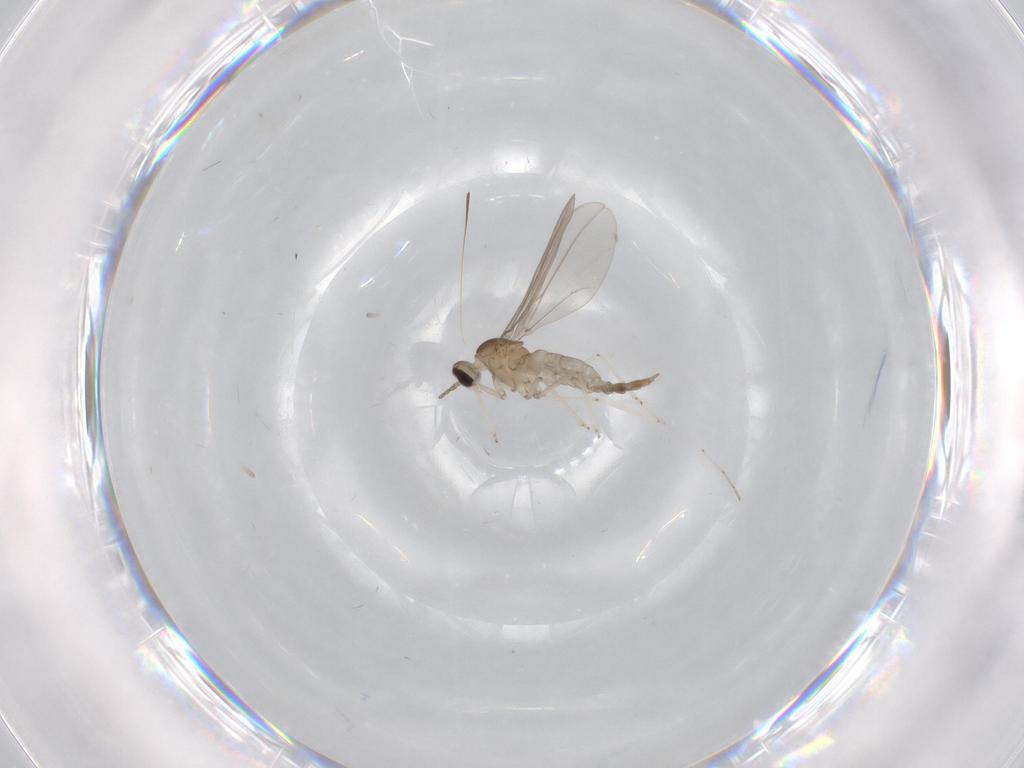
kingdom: Animalia
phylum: Arthropoda
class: Insecta
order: Diptera
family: Cecidomyiidae
